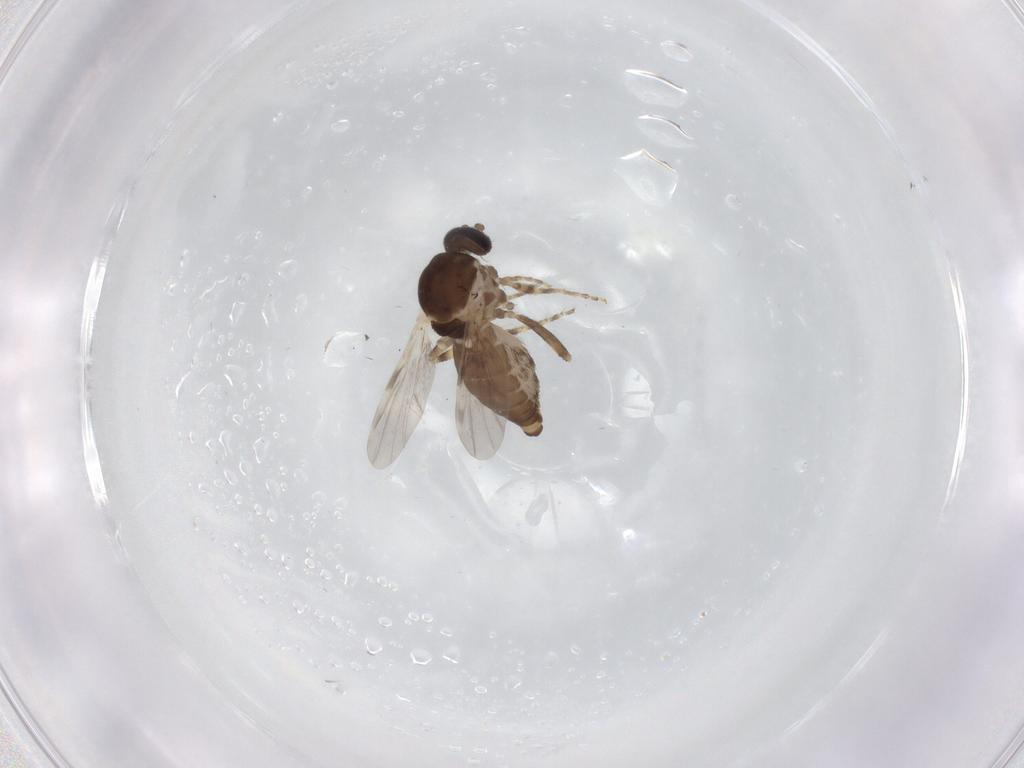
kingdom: Animalia
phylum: Arthropoda
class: Insecta
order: Diptera
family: Ceratopogonidae
